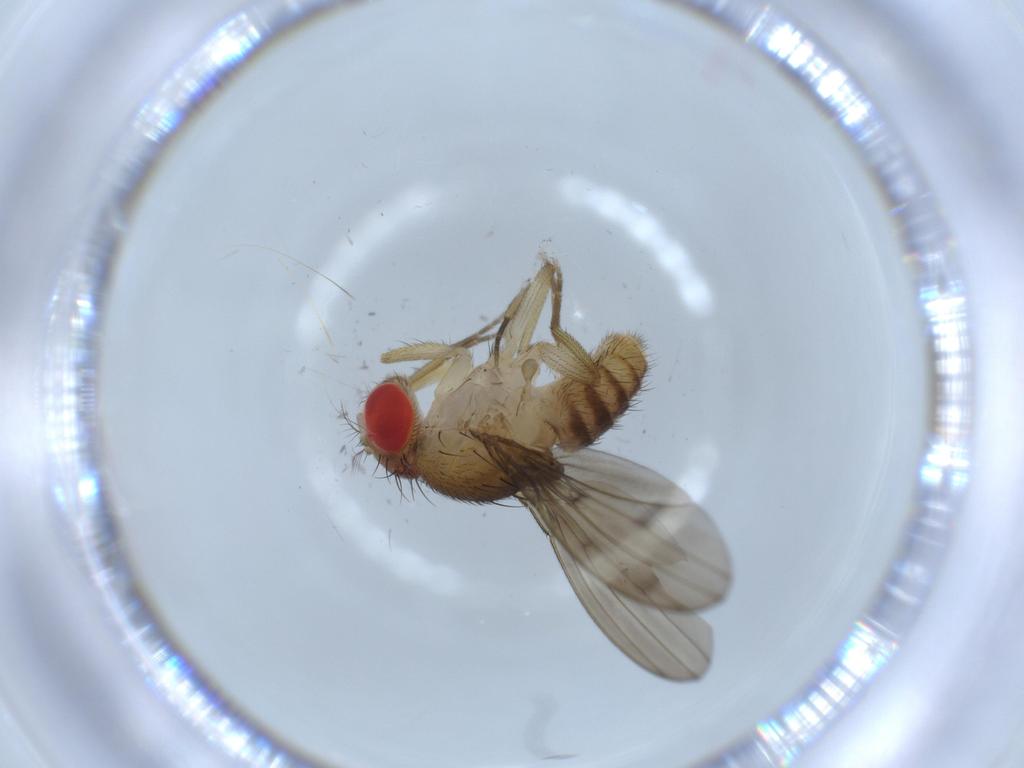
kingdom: Animalia
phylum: Arthropoda
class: Insecta
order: Diptera
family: Drosophilidae
